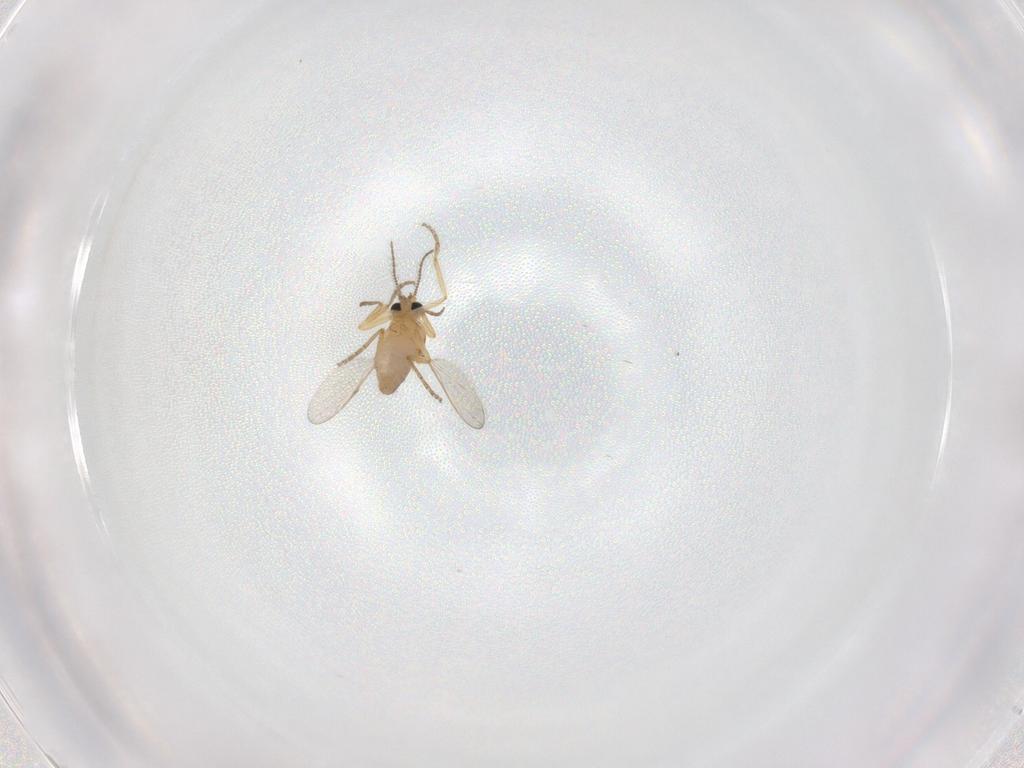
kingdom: Animalia
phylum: Arthropoda
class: Insecta
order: Diptera
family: Ceratopogonidae
